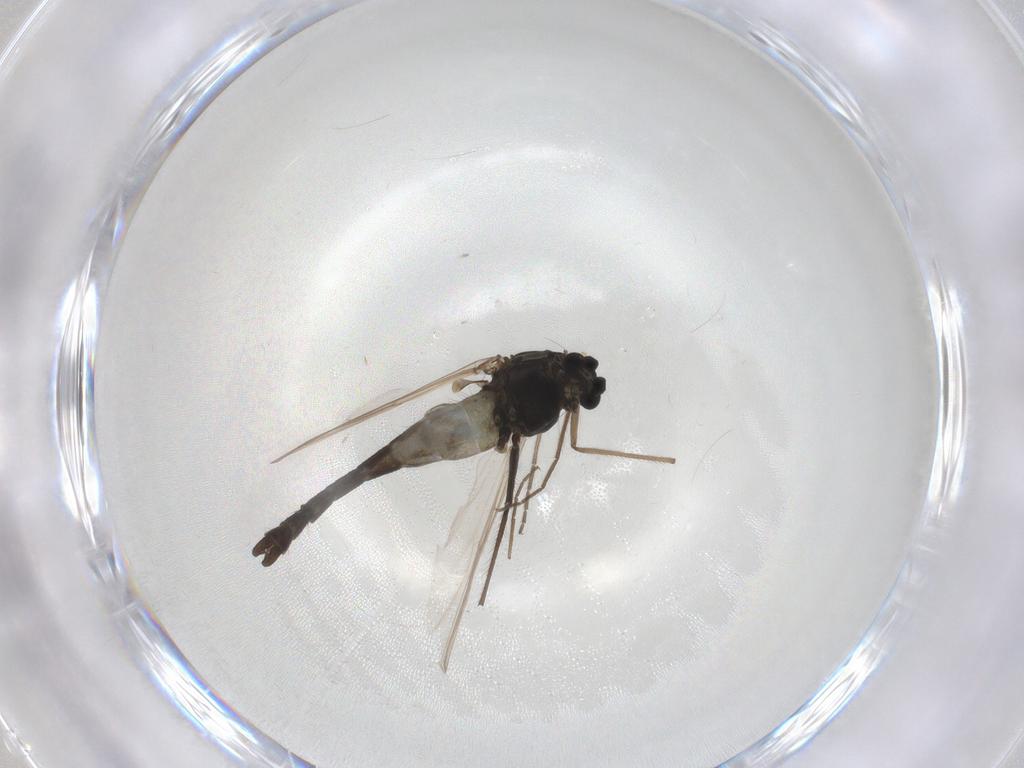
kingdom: Animalia
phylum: Arthropoda
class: Insecta
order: Diptera
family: Chironomidae
